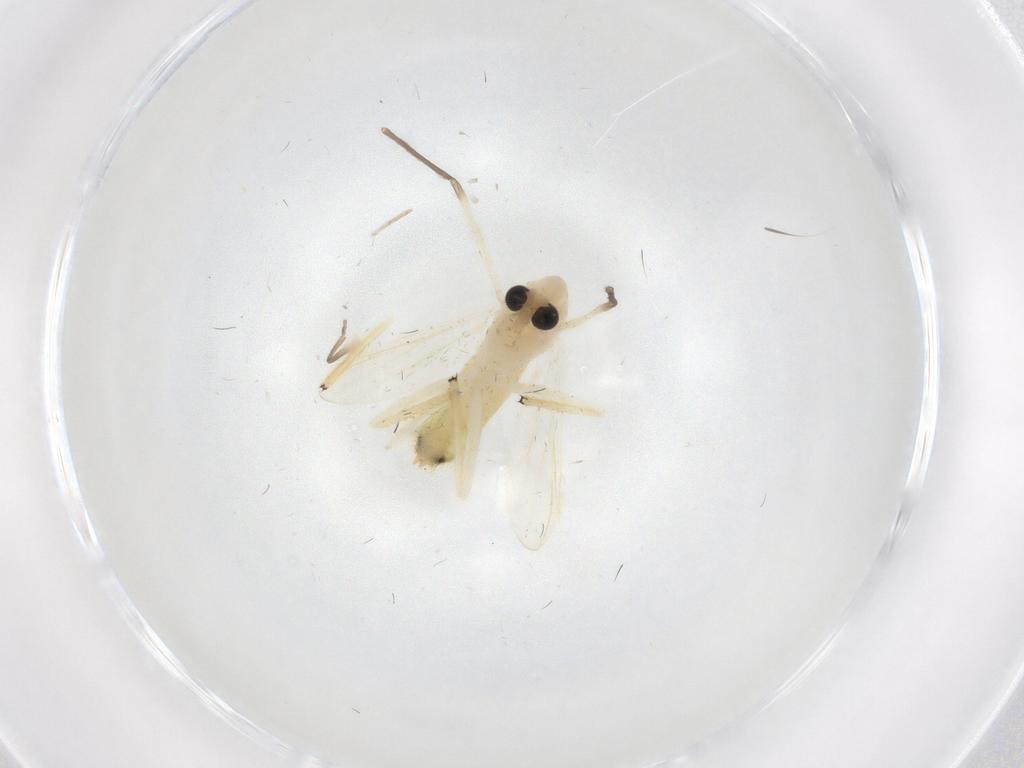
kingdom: Animalia
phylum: Arthropoda
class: Insecta
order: Diptera
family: Chironomidae
